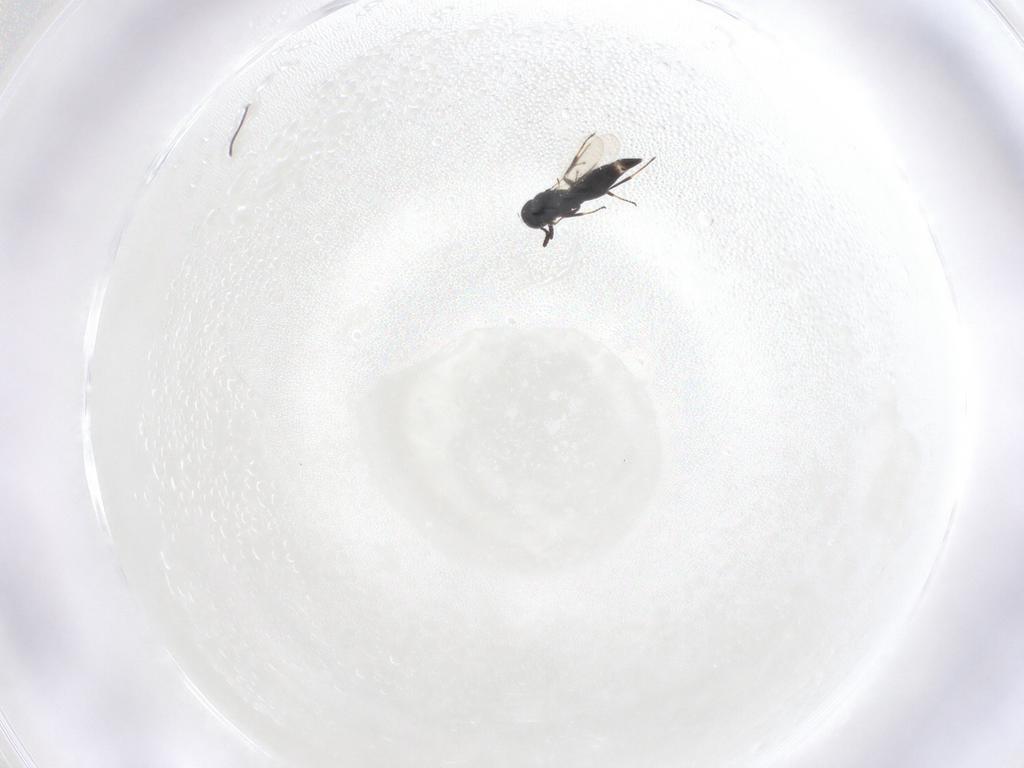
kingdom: Animalia
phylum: Arthropoda
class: Insecta
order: Hymenoptera
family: Scelionidae
